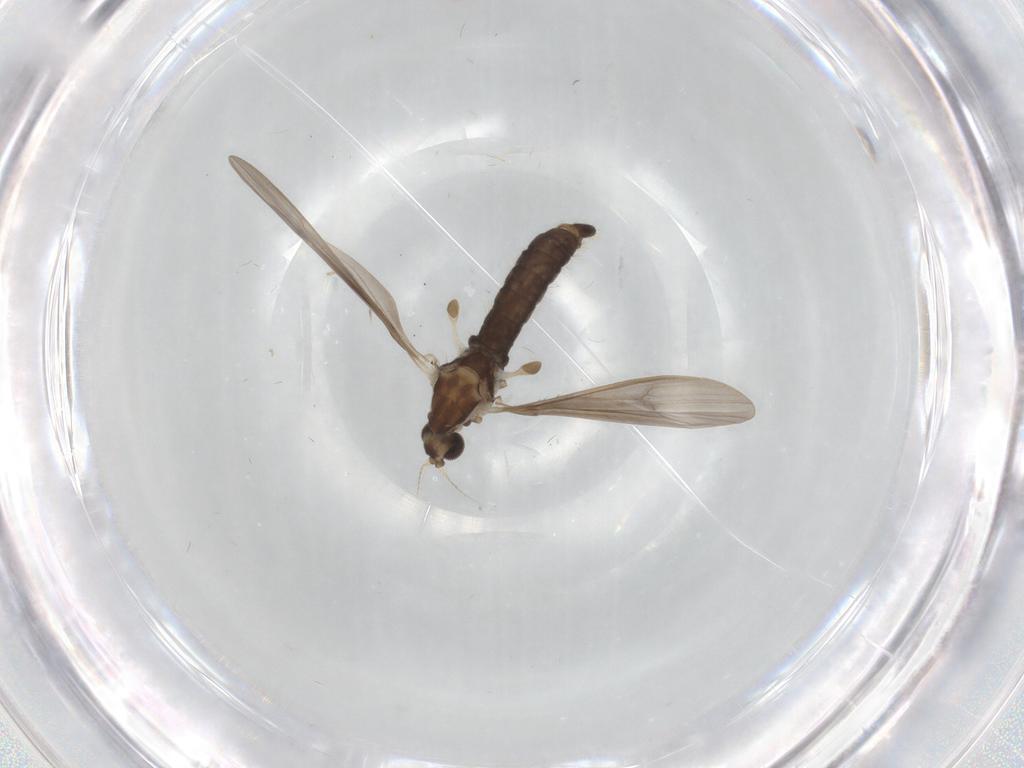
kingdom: Animalia
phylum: Arthropoda
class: Insecta
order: Diptera
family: Limoniidae
